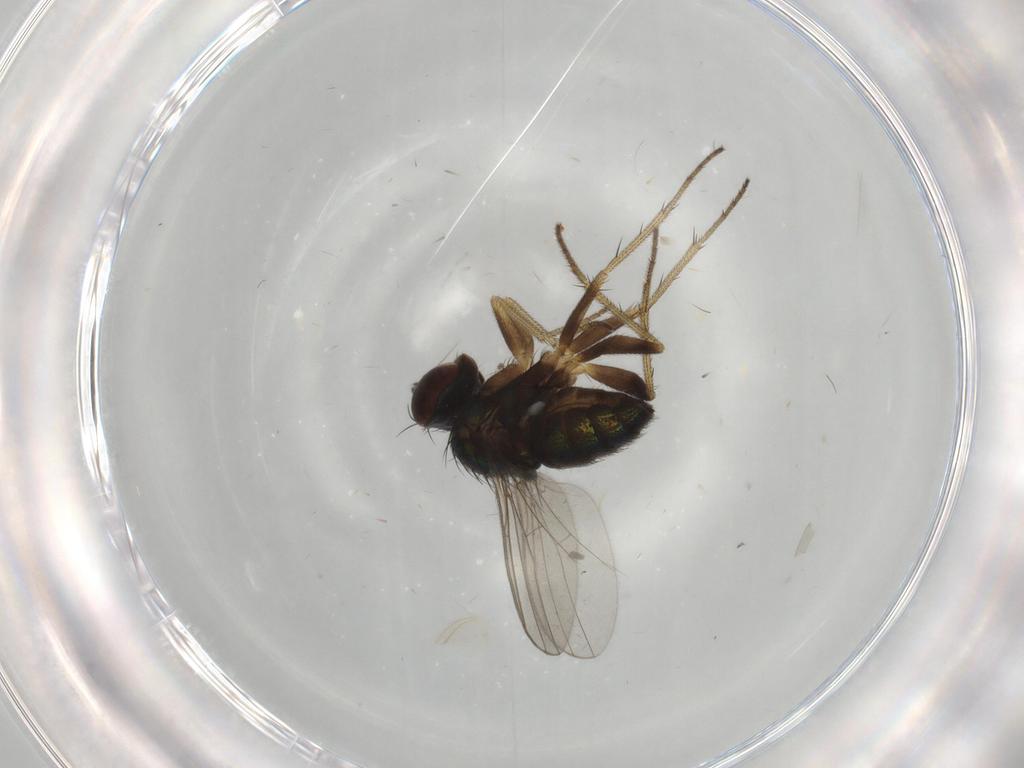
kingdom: Animalia
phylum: Arthropoda
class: Insecta
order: Diptera
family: Dolichopodidae
